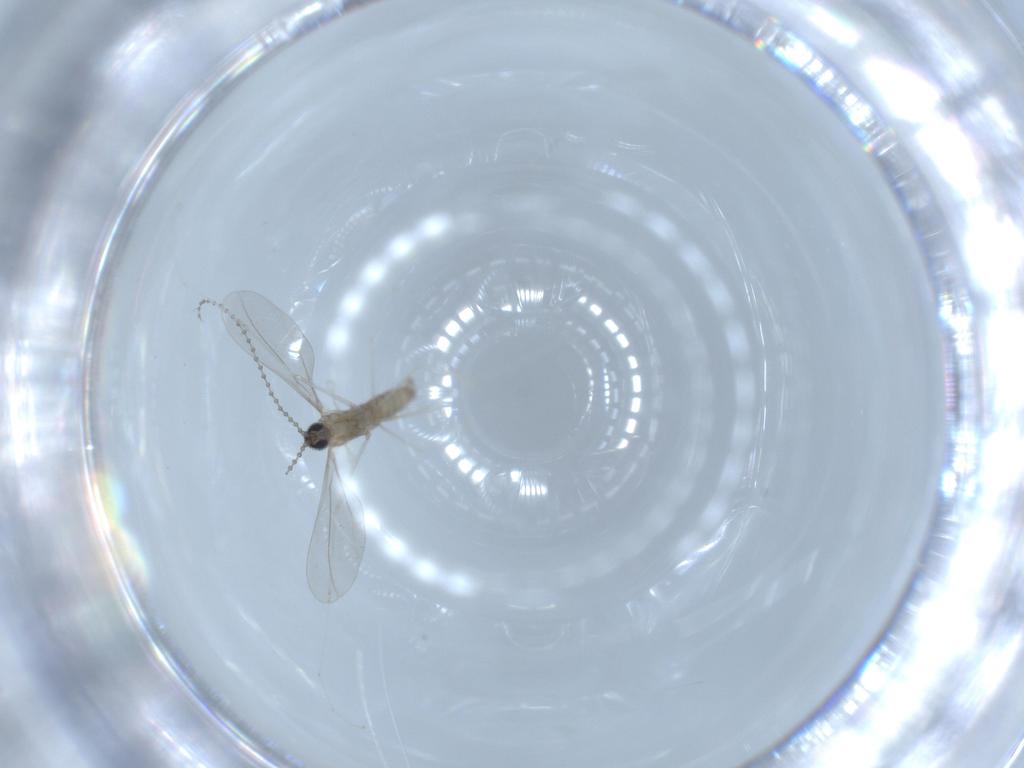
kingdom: Animalia
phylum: Arthropoda
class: Insecta
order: Diptera
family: Cecidomyiidae
